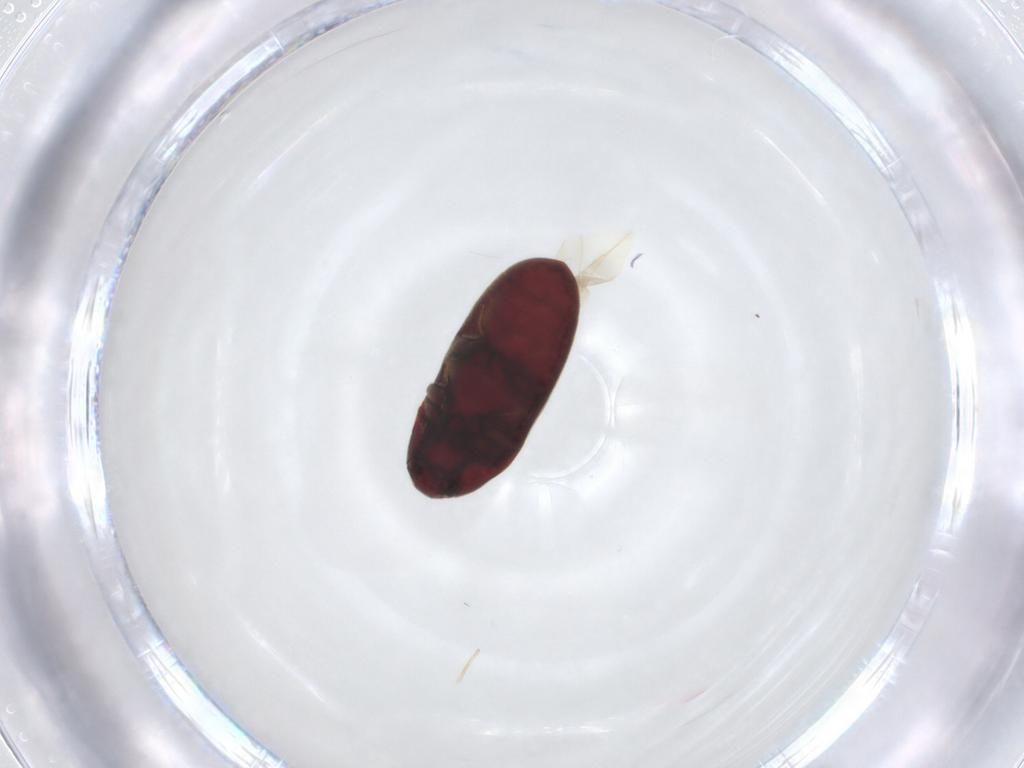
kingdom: Animalia
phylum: Arthropoda
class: Insecta
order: Coleoptera
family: Throscidae
